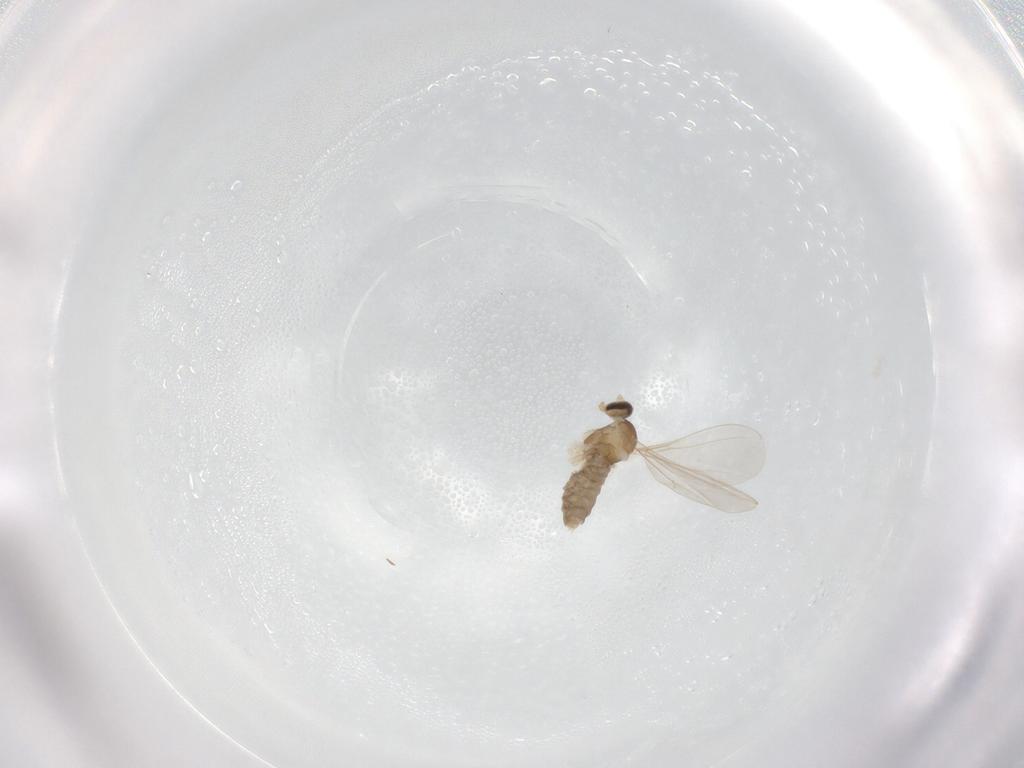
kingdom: Animalia
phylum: Arthropoda
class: Insecta
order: Diptera
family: Cecidomyiidae
